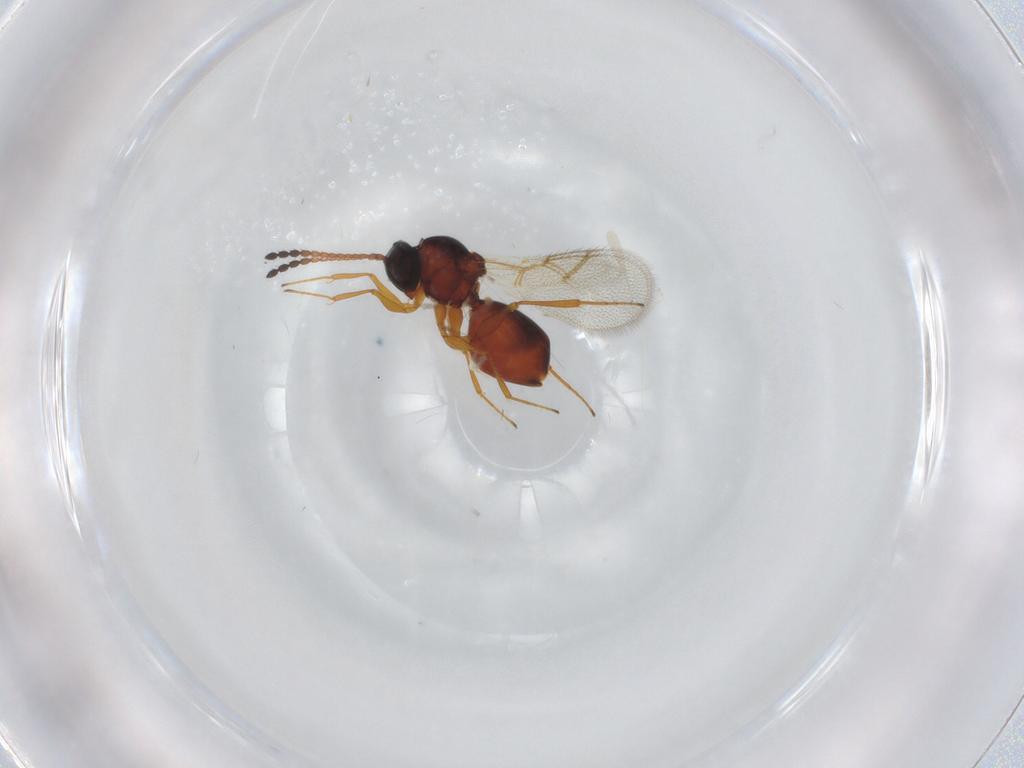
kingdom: Animalia
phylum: Arthropoda
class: Insecta
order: Hymenoptera
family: Figitidae
